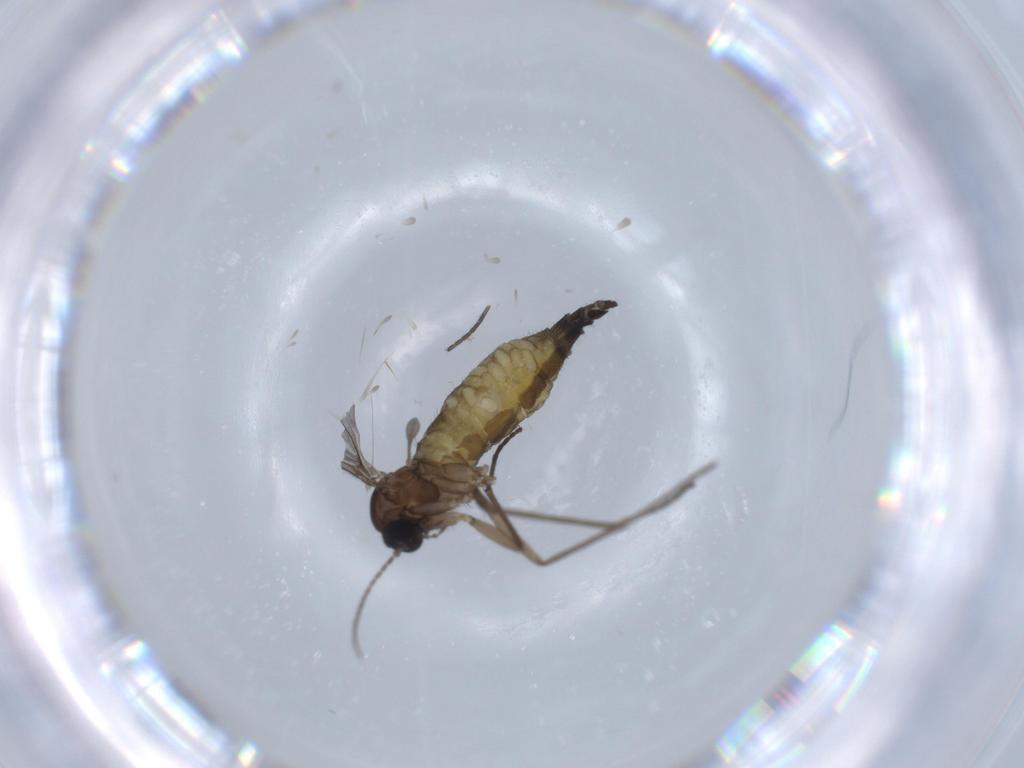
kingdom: Animalia
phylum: Arthropoda
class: Insecta
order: Diptera
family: Sciaridae
